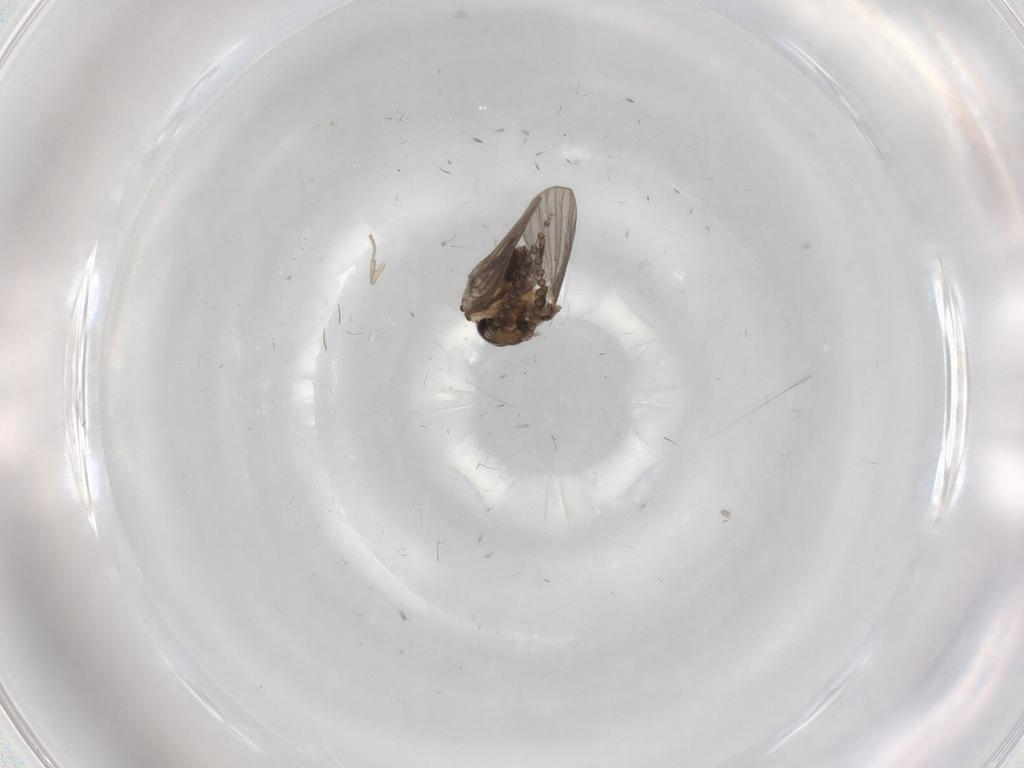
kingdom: Animalia
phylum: Arthropoda
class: Insecta
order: Diptera
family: Psychodidae
